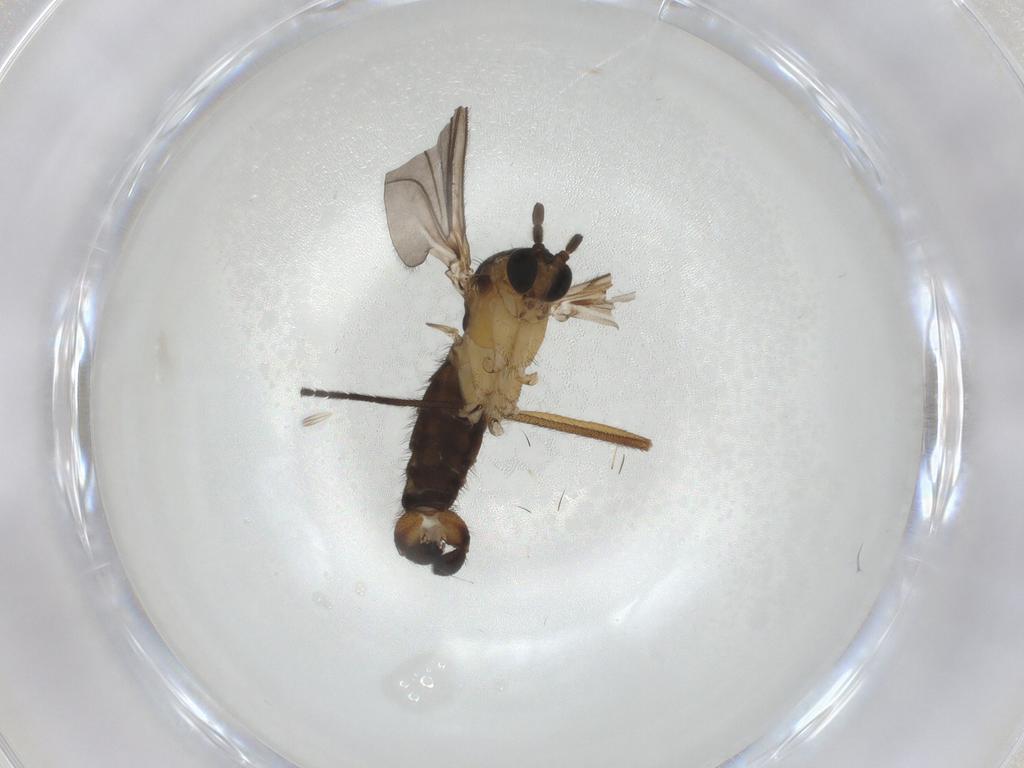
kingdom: Animalia
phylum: Arthropoda
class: Insecta
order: Diptera
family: Sciaridae
